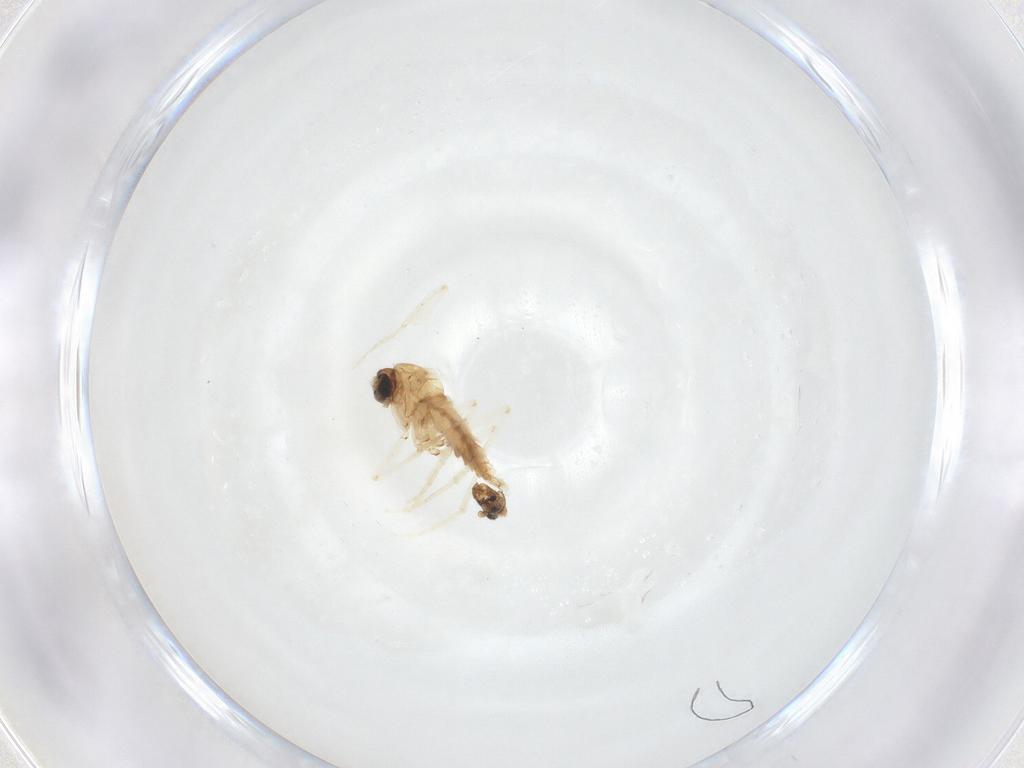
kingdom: Animalia
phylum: Arthropoda
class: Insecta
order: Diptera
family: Sciaridae
